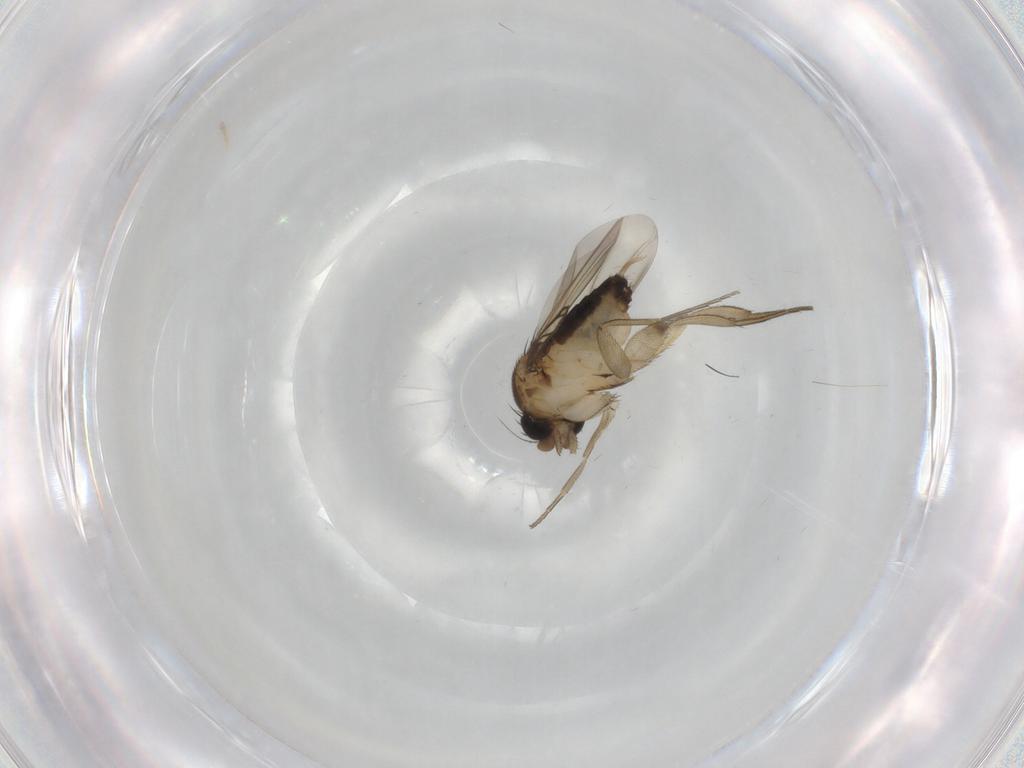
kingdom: Animalia
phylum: Arthropoda
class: Insecta
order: Diptera
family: Phoridae
